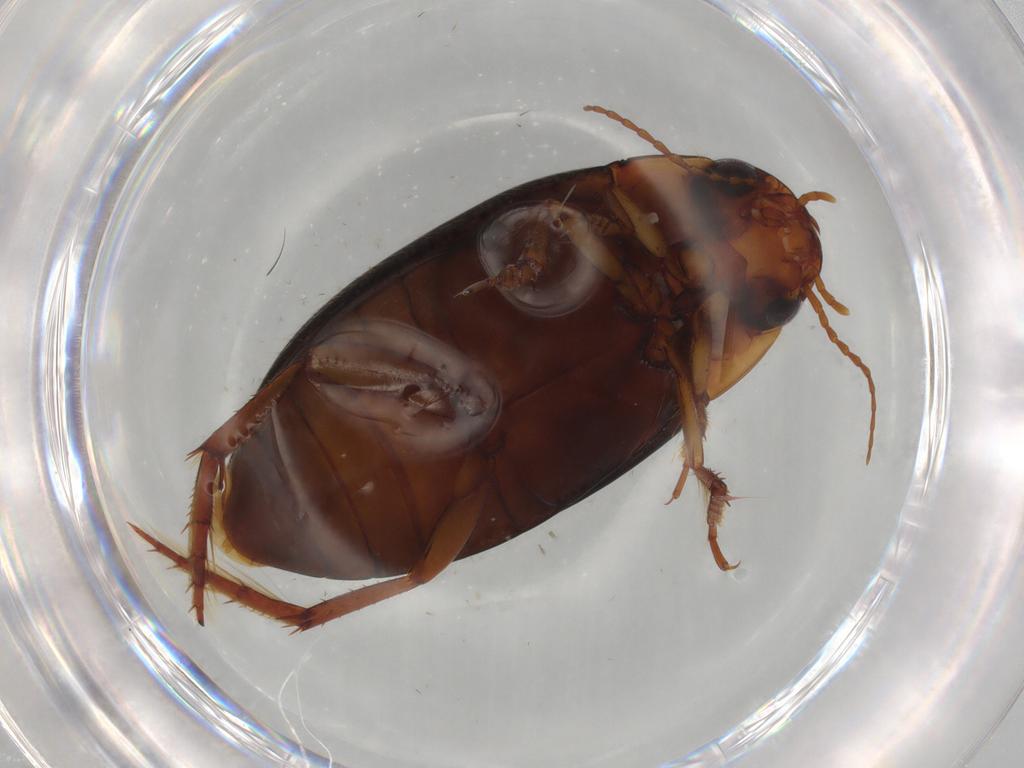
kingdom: Animalia
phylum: Arthropoda
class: Insecta
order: Coleoptera
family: Dytiscidae
